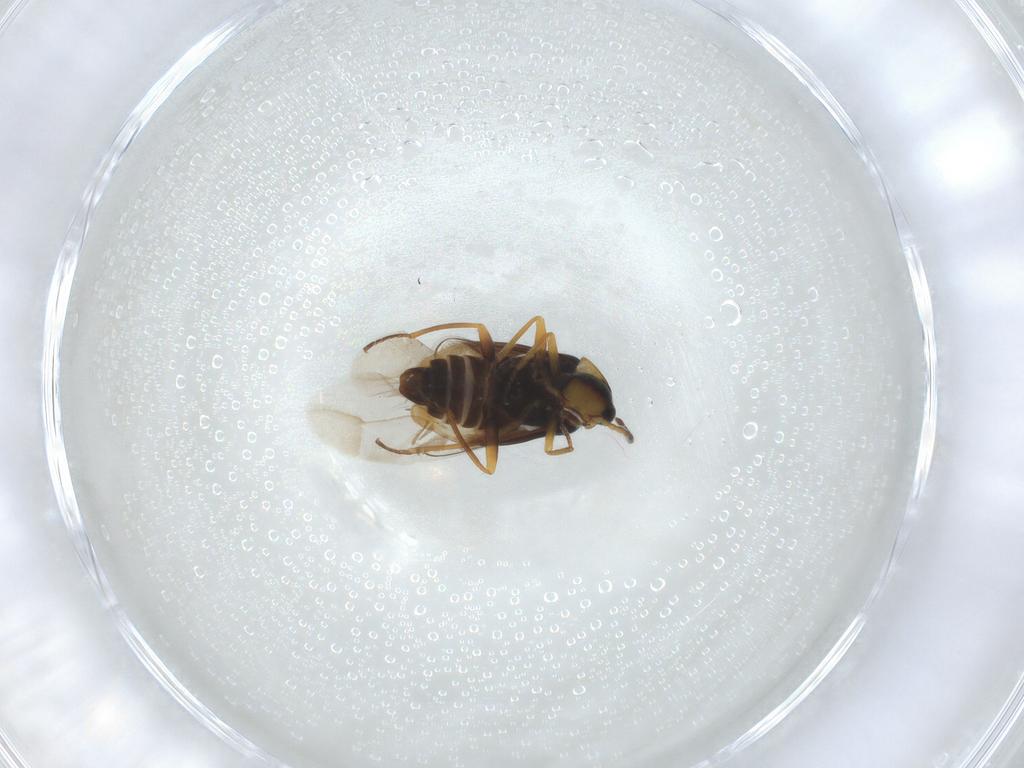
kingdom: Animalia
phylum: Arthropoda
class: Insecta
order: Coleoptera
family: Melyridae
